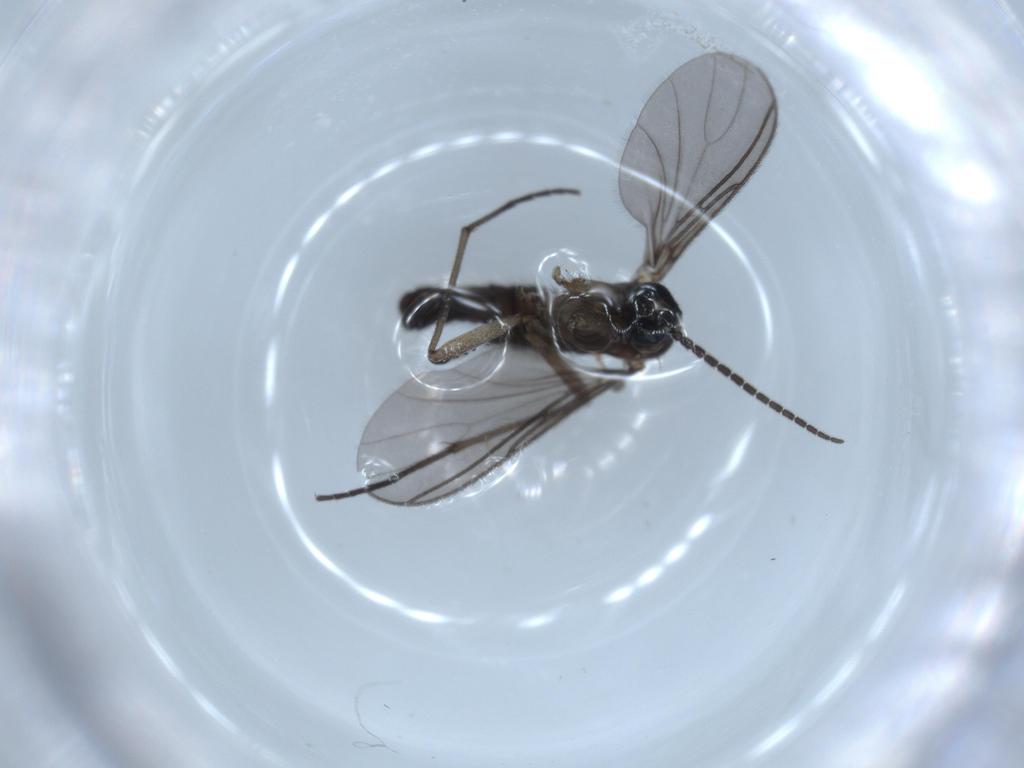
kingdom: Animalia
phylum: Arthropoda
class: Insecta
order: Diptera
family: Sciaridae
